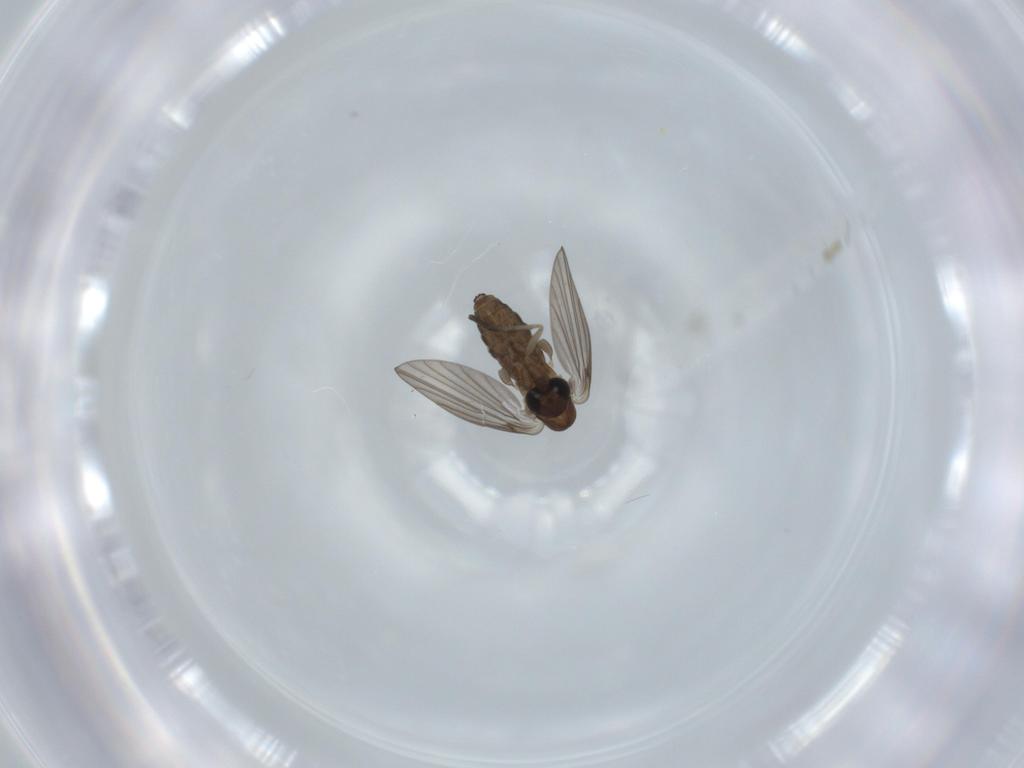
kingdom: Animalia
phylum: Arthropoda
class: Insecta
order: Diptera
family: Psychodidae
